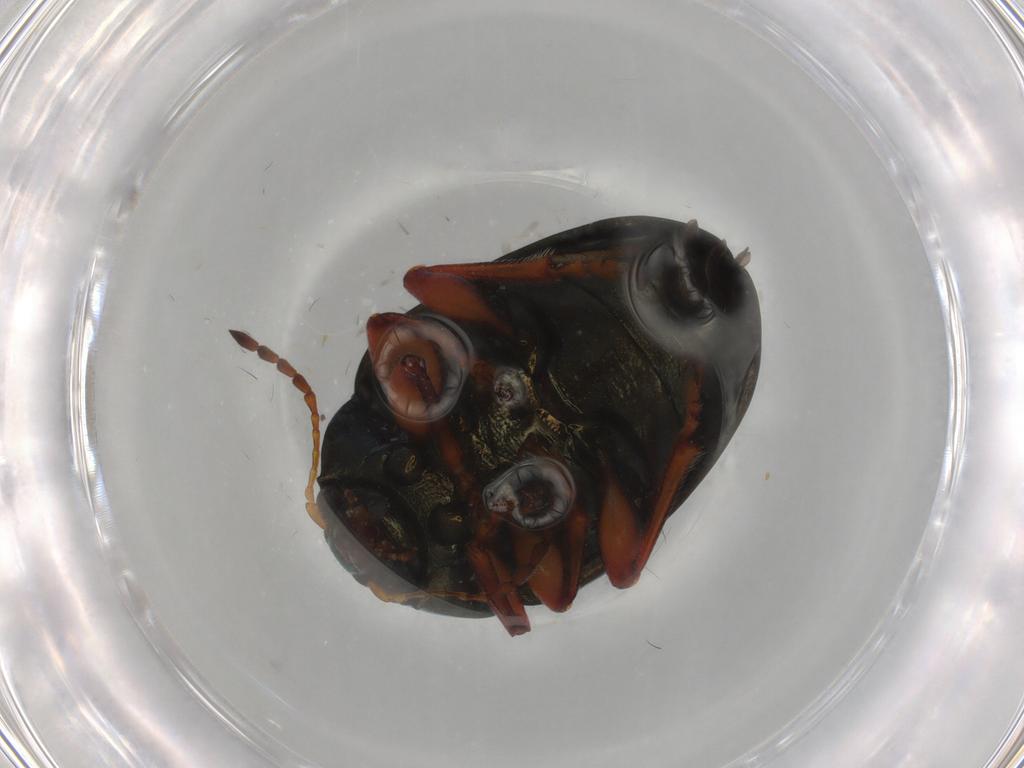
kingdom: Animalia
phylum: Arthropoda
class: Insecta
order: Coleoptera
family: Chrysomelidae
